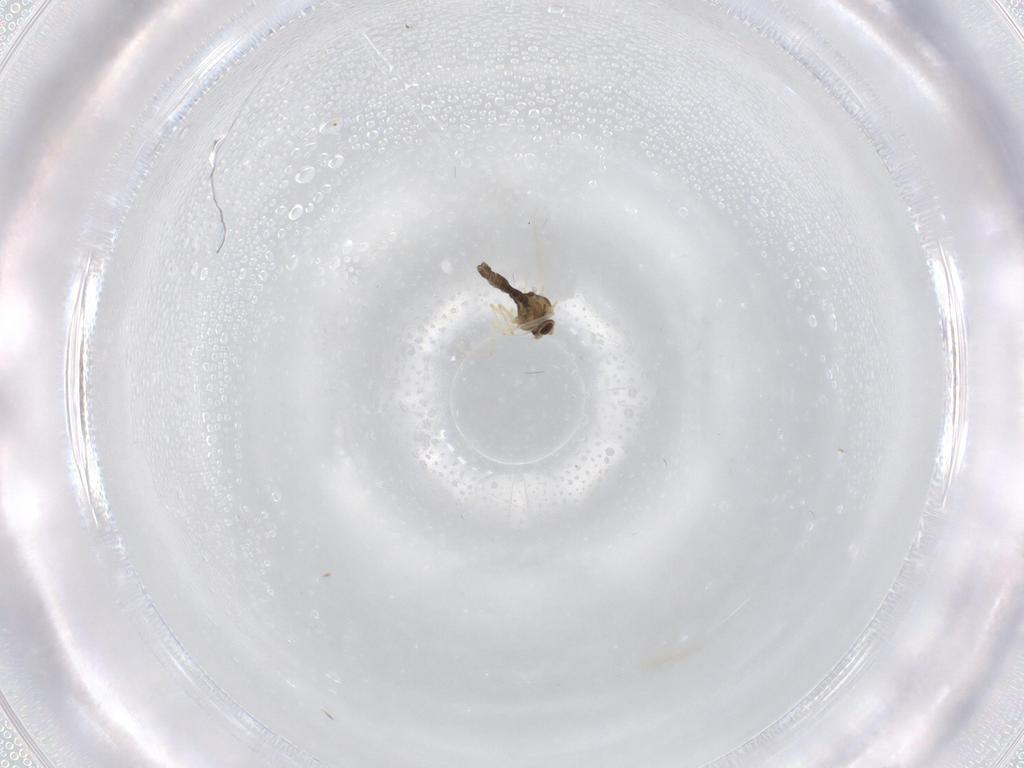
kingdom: Animalia
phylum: Arthropoda
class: Insecta
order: Diptera
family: Chironomidae
